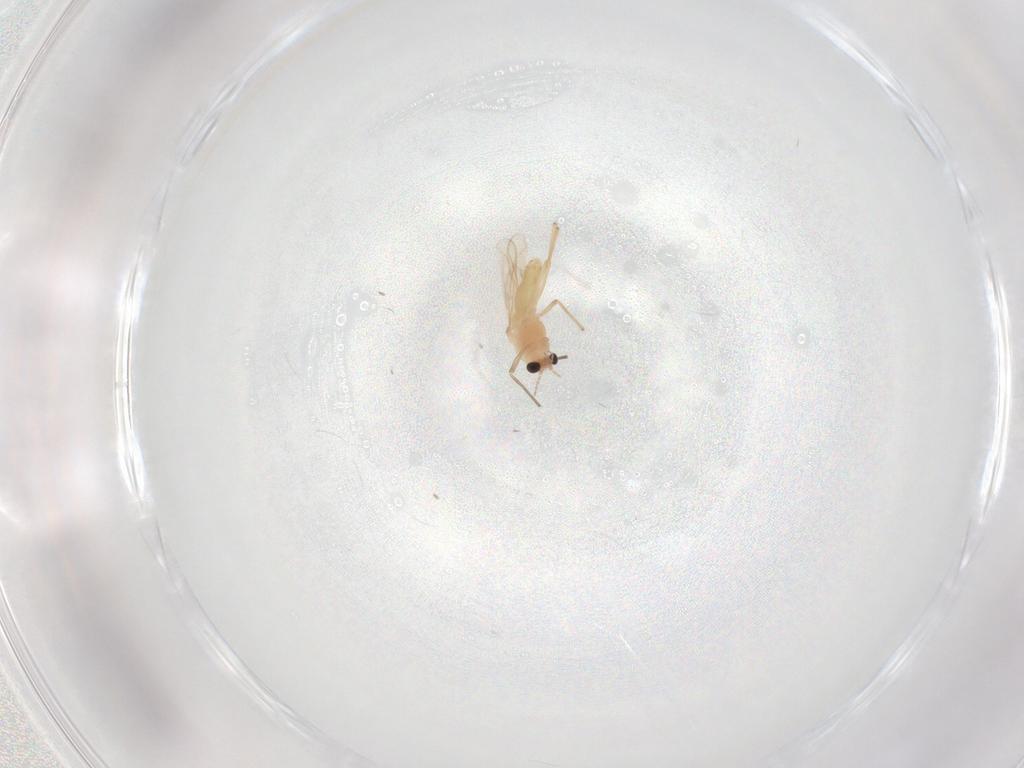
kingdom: Animalia
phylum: Arthropoda
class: Insecta
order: Diptera
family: Chironomidae
